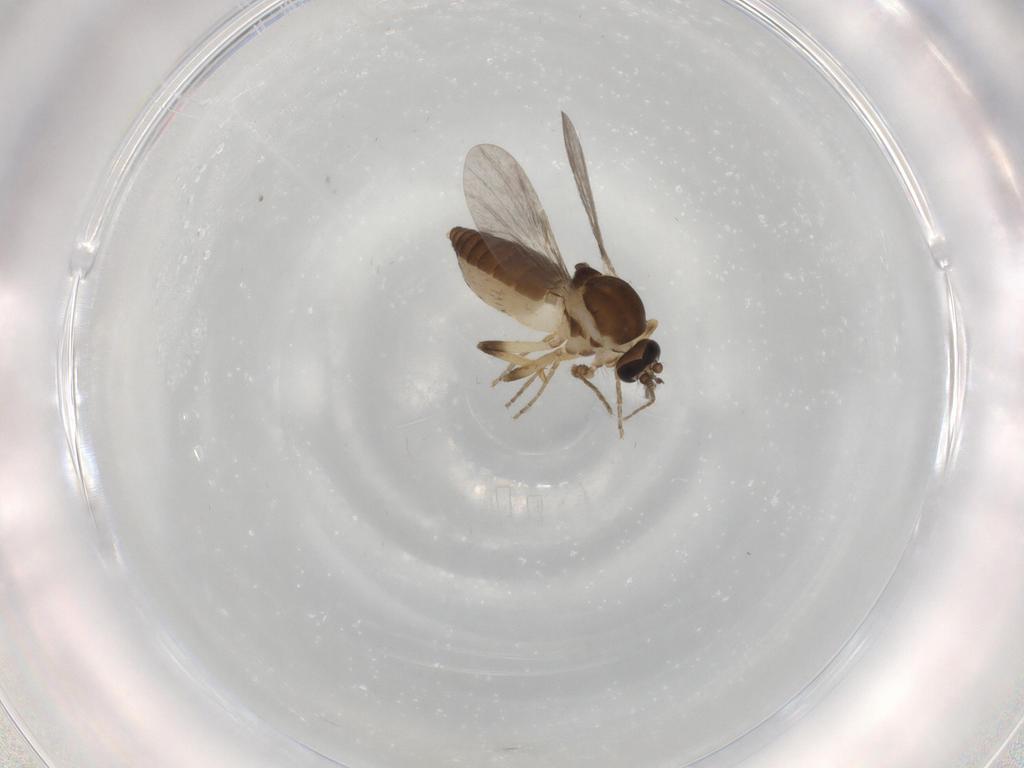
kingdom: Animalia
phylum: Arthropoda
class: Insecta
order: Diptera
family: Ceratopogonidae
